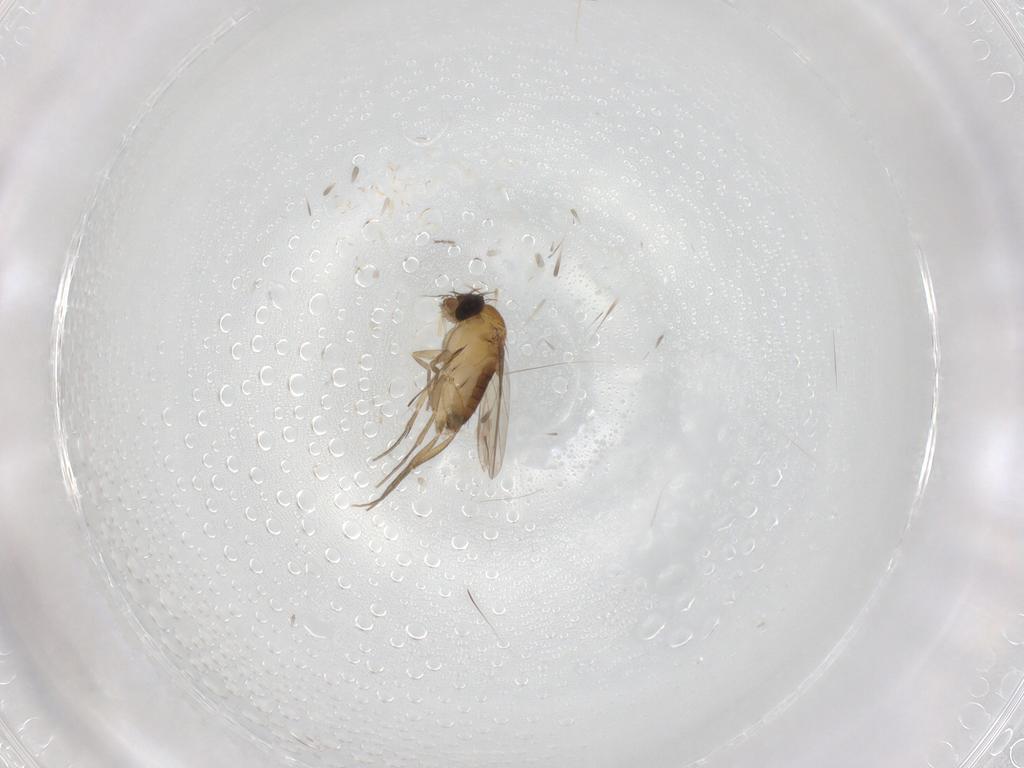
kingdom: Animalia
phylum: Arthropoda
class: Insecta
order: Diptera
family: Phoridae
